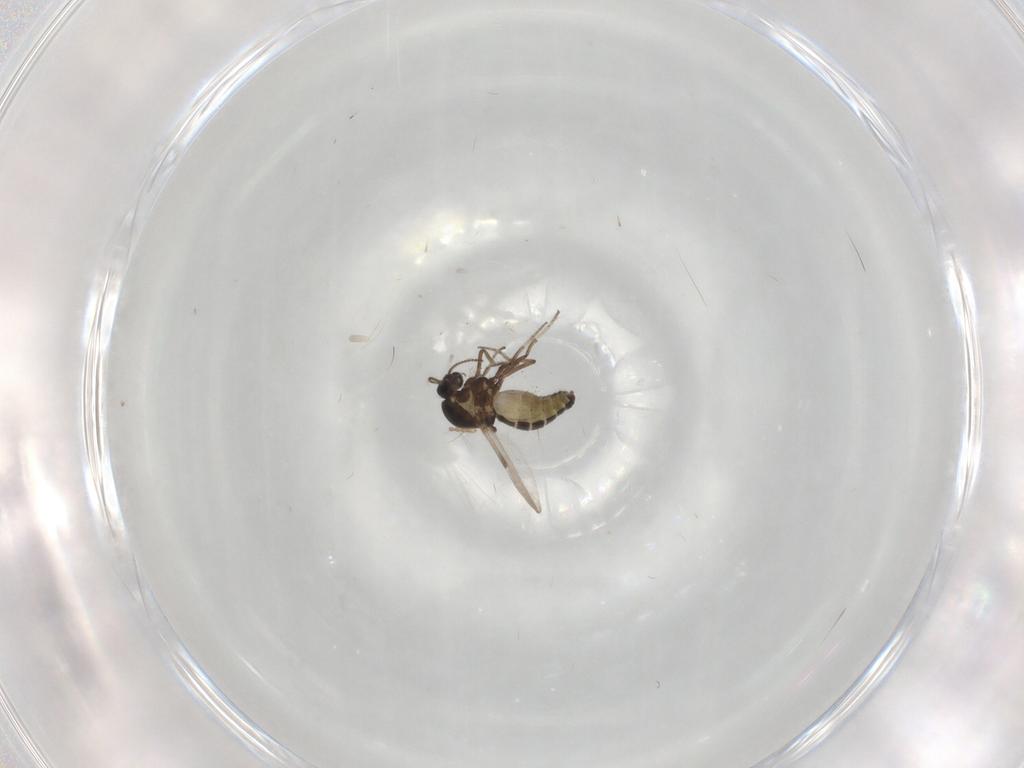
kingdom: Animalia
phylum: Arthropoda
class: Insecta
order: Diptera
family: Ceratopogonidae
